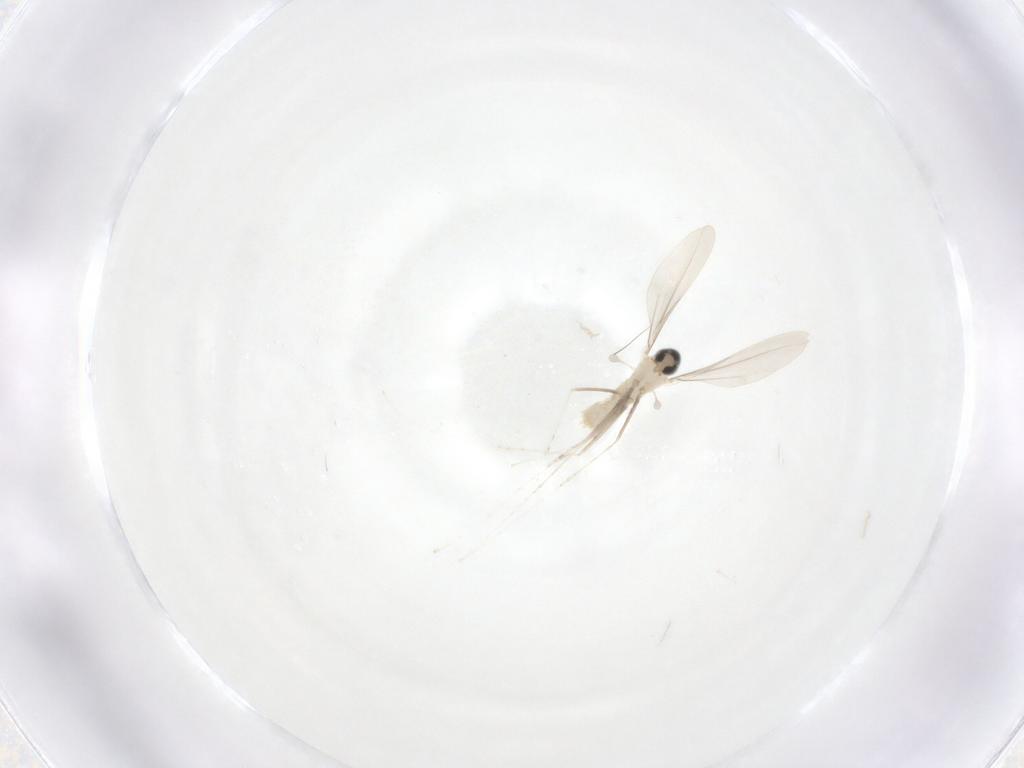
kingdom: Animalia
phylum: Arthropoda
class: Insecta
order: Diptera
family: Cecidomyiidae
